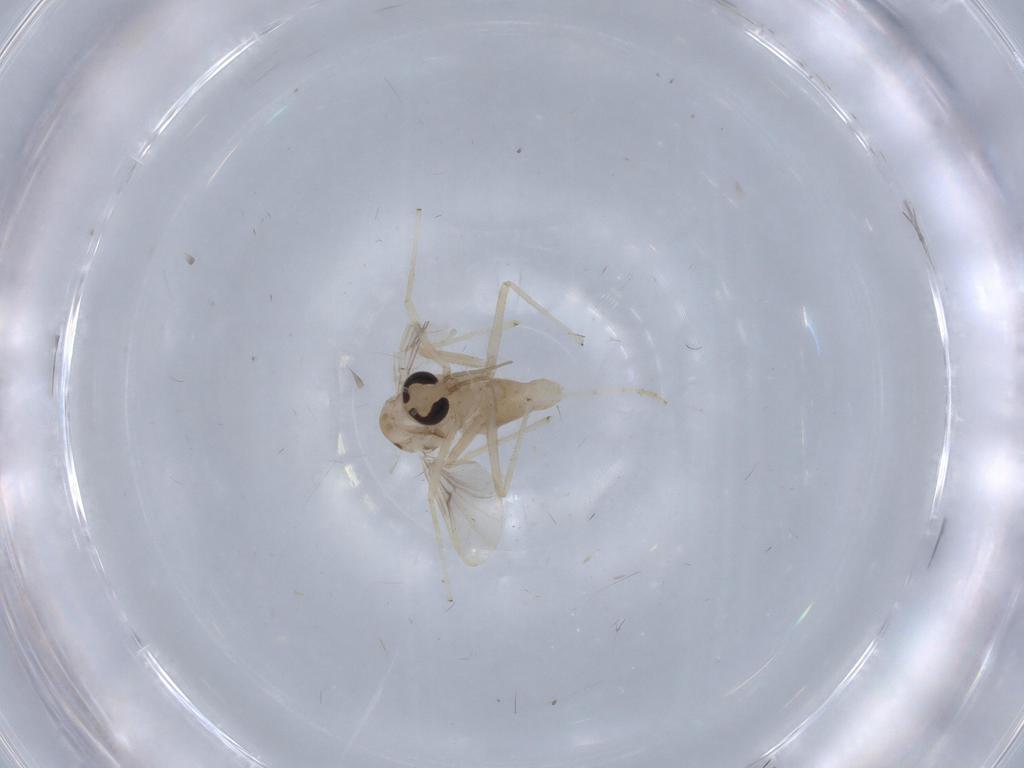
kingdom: Animalia
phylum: Arthropoda
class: Insecta
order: Diptera
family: Chironomidae
